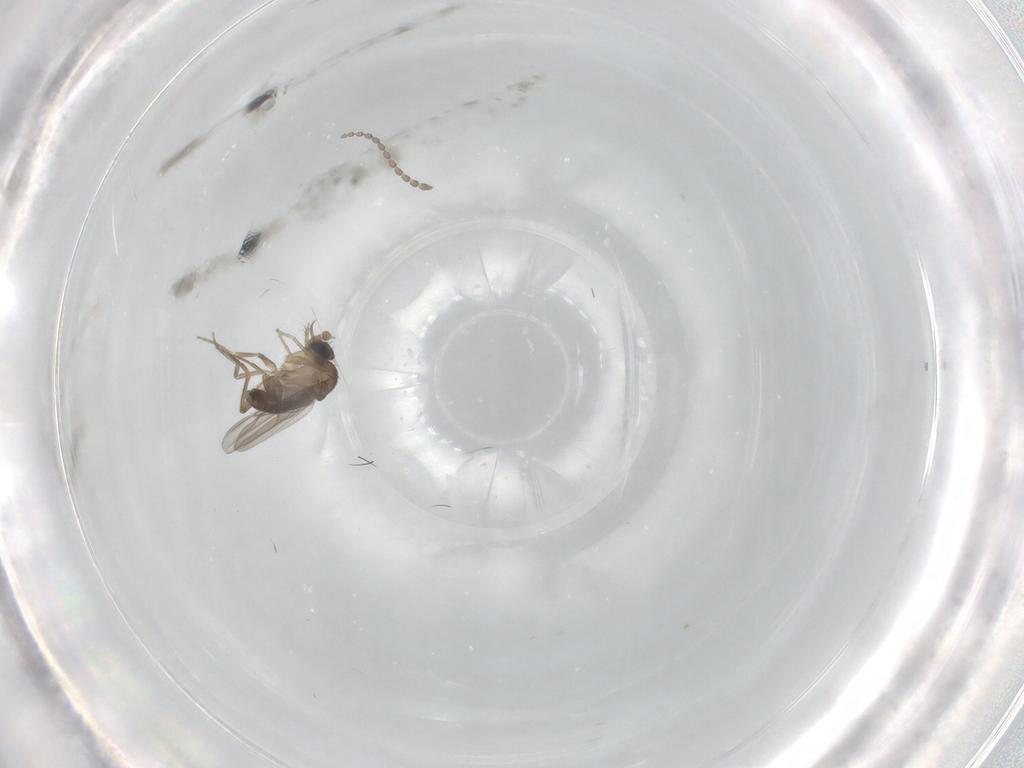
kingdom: Animalia
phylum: Arthropoda
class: Insecta
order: Diptera
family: Phoridae
